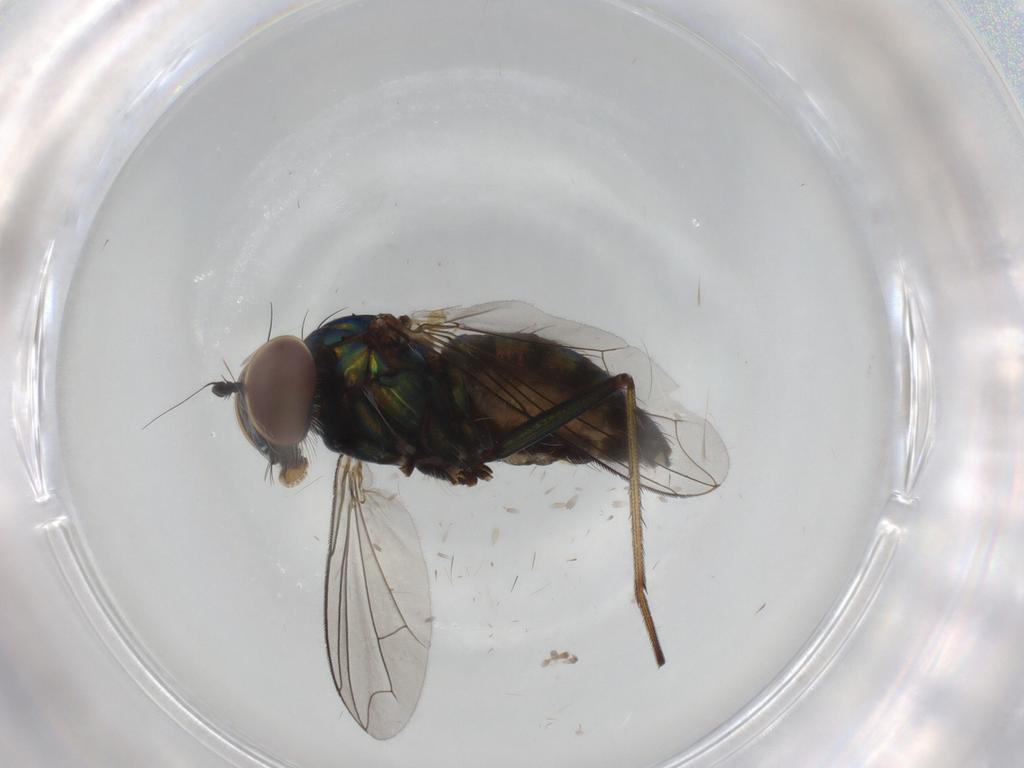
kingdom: Animalia
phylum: Arthropoda
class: Insecta
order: Diptera
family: Dolichopodidae
